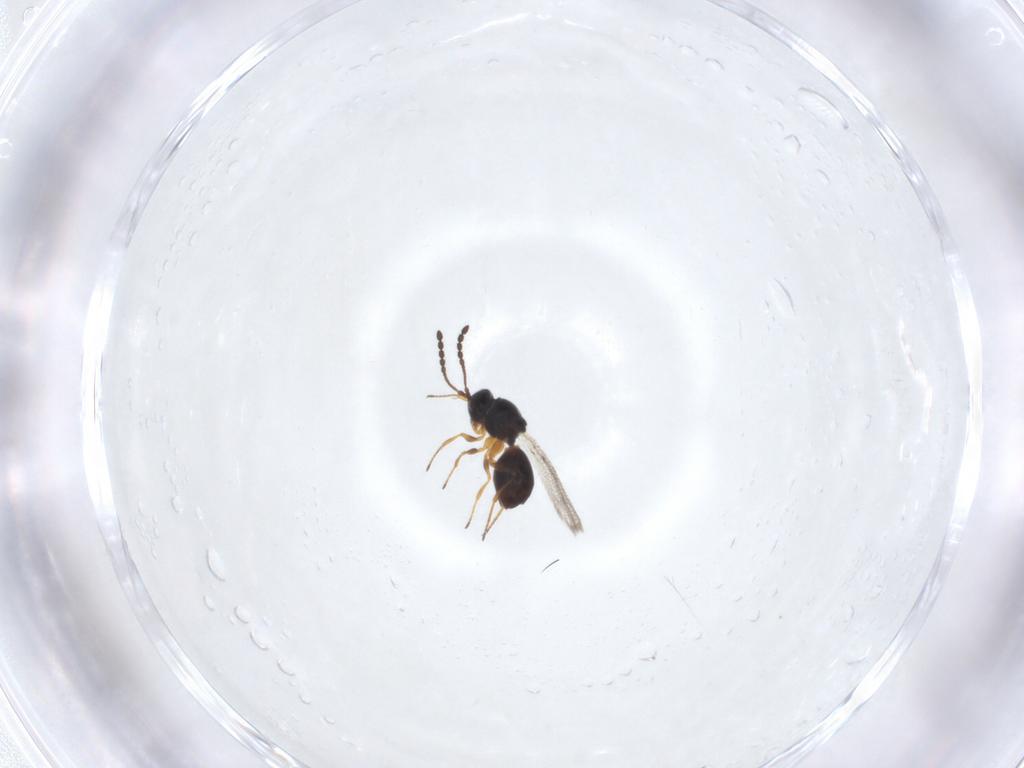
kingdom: Animalia
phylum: Arthropoda
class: Insecta
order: Hymenoptera
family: Figitidae
